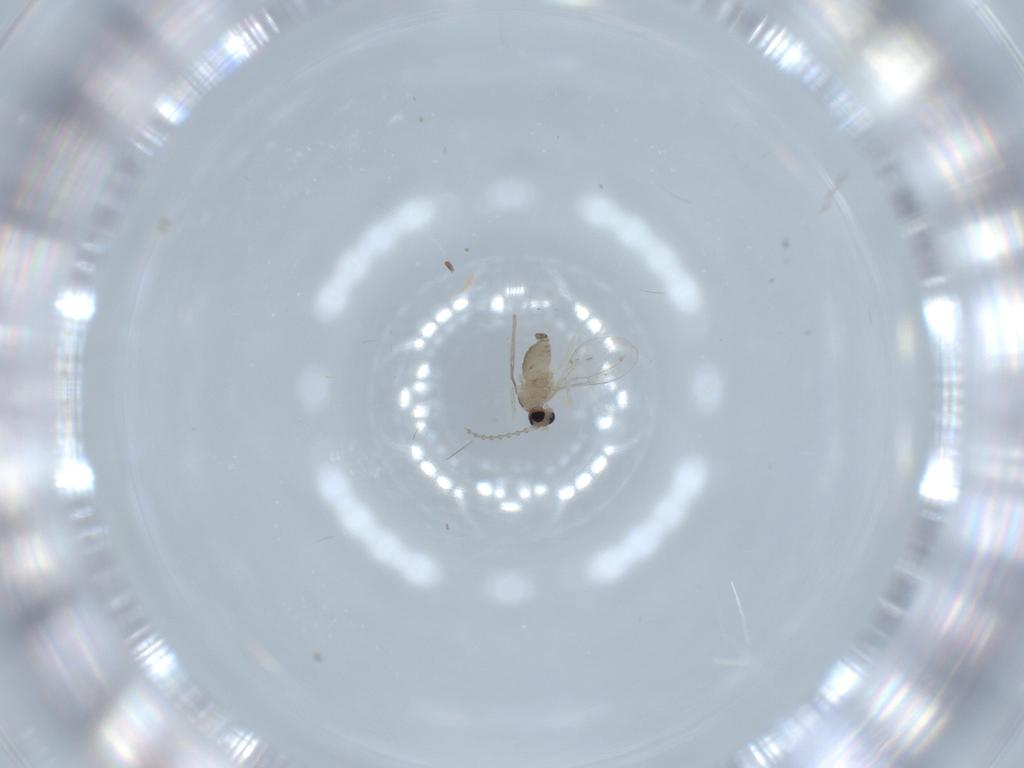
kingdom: Animalia
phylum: Arthropoda
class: Insecta
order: Diptera
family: Cecidomyiidae
